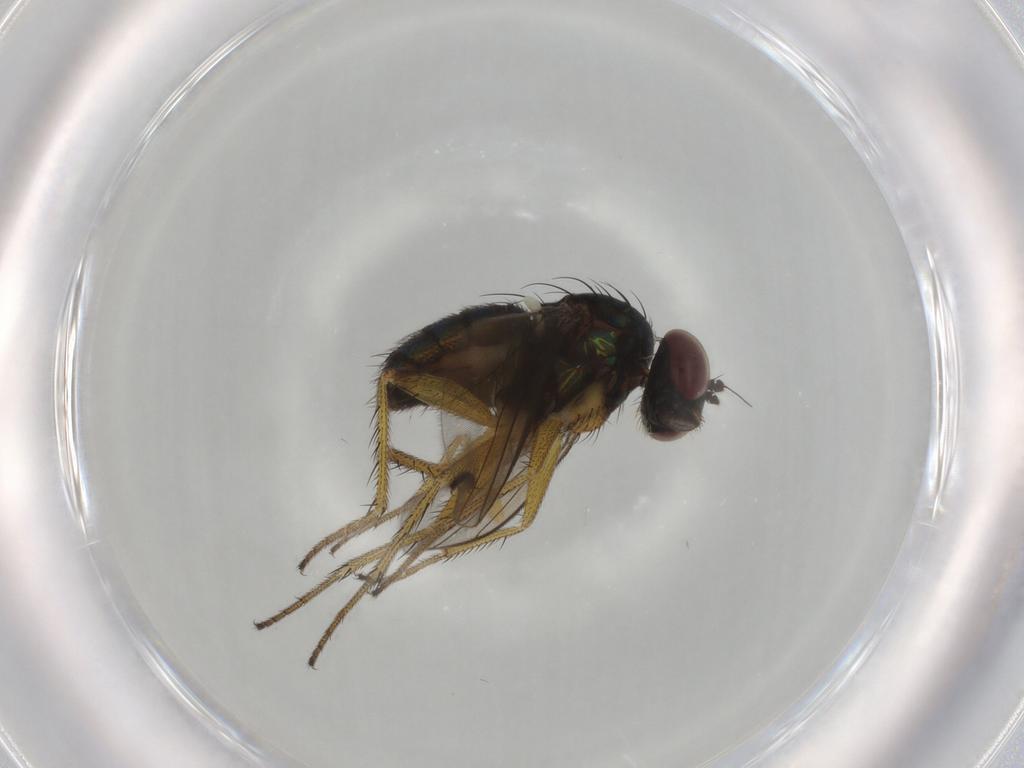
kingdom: Animalia
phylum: Arthropoda
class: Insecta
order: Diptera
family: Dolichopodidae
